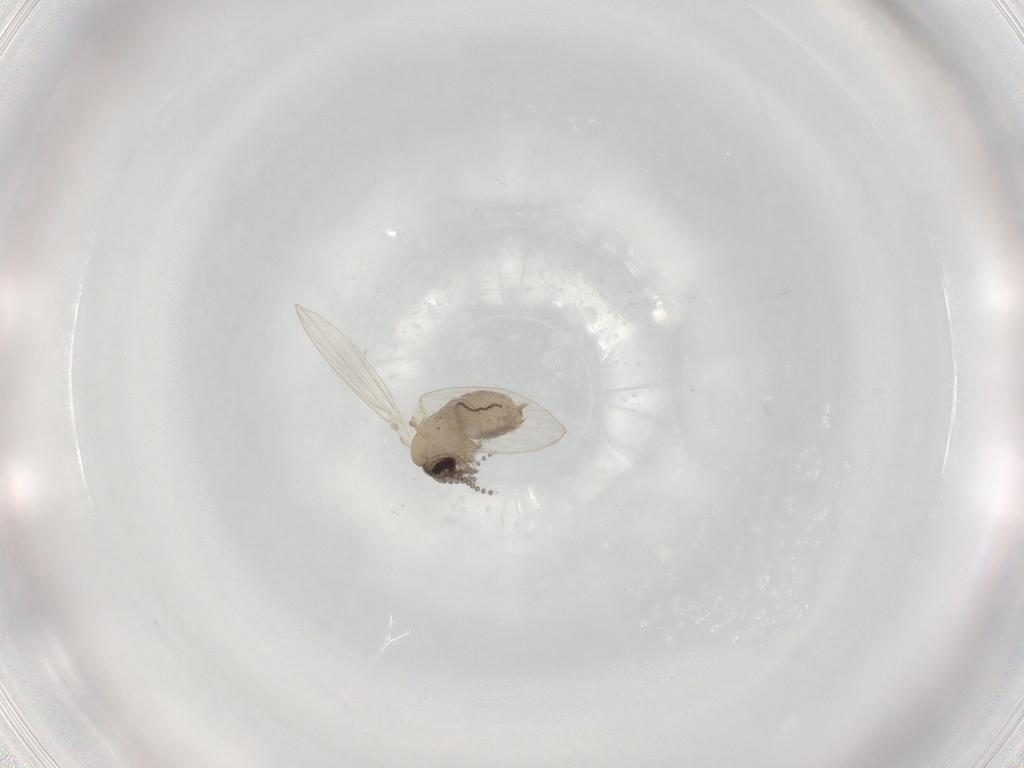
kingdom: Animalia
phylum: Arthropoda
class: Insecta
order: Diptera
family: Psychodidae
